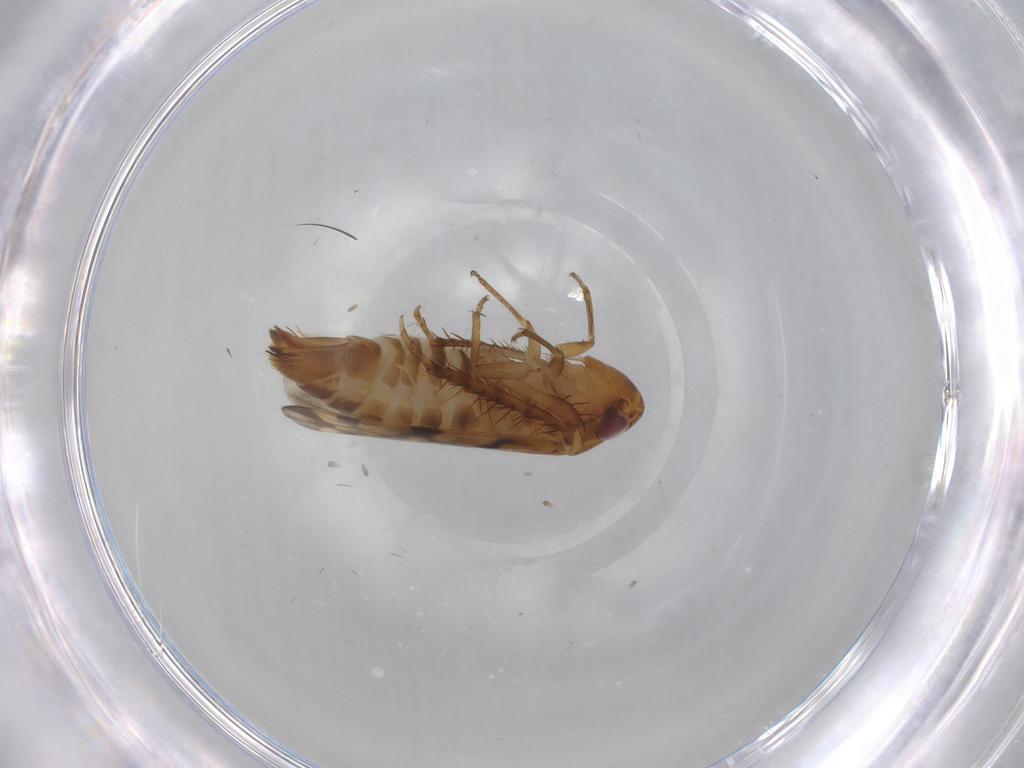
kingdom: Animalia
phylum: Arthropoda
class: Insecta
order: Hemiptera
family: Cicadellidae
